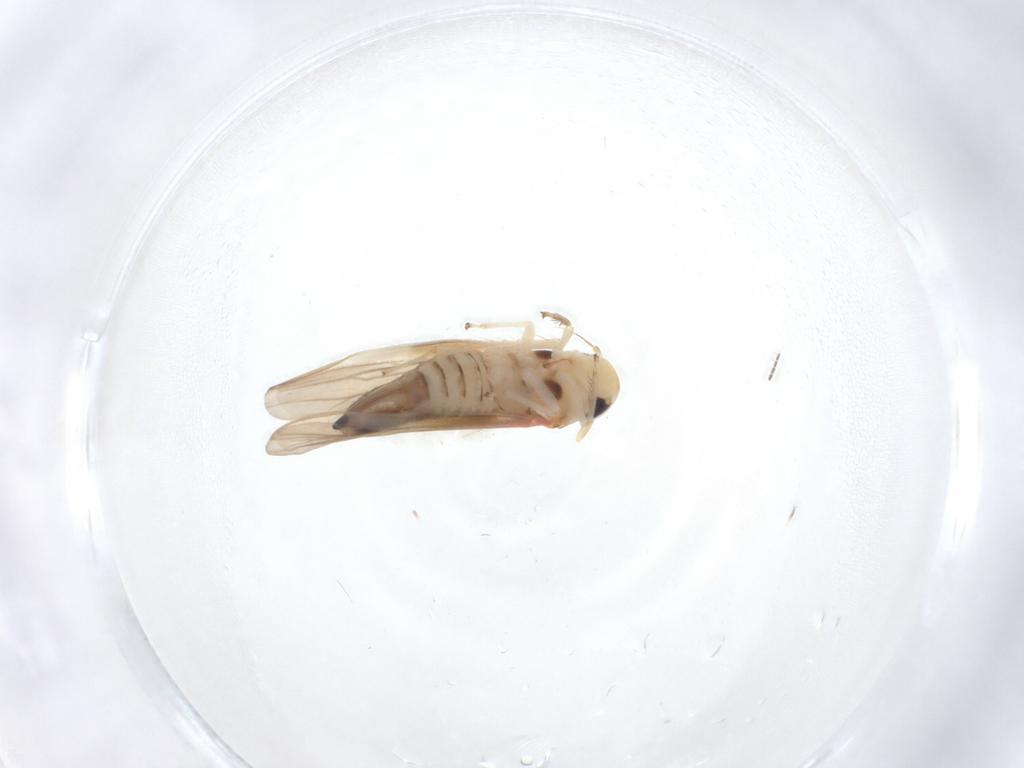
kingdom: Animalia
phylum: Arthropoda
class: Insecta
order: Hemiptera
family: Cicadellidae
